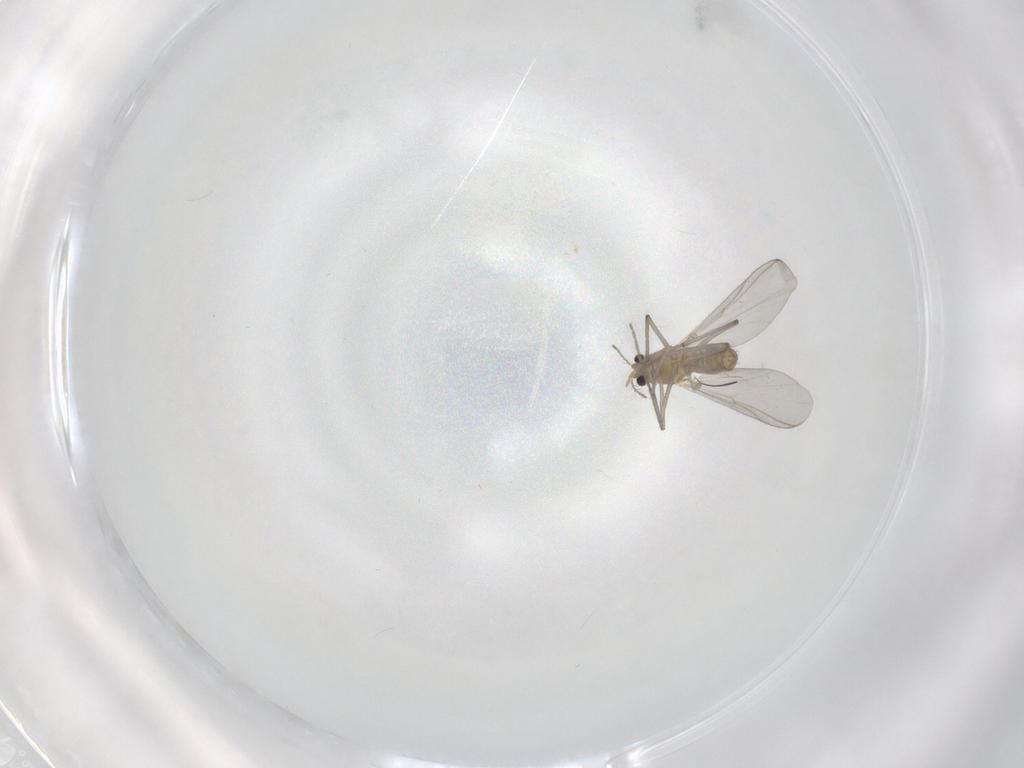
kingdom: Animalia
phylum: Arthropoda
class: Insecta
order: Diptera
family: Chironomidae
